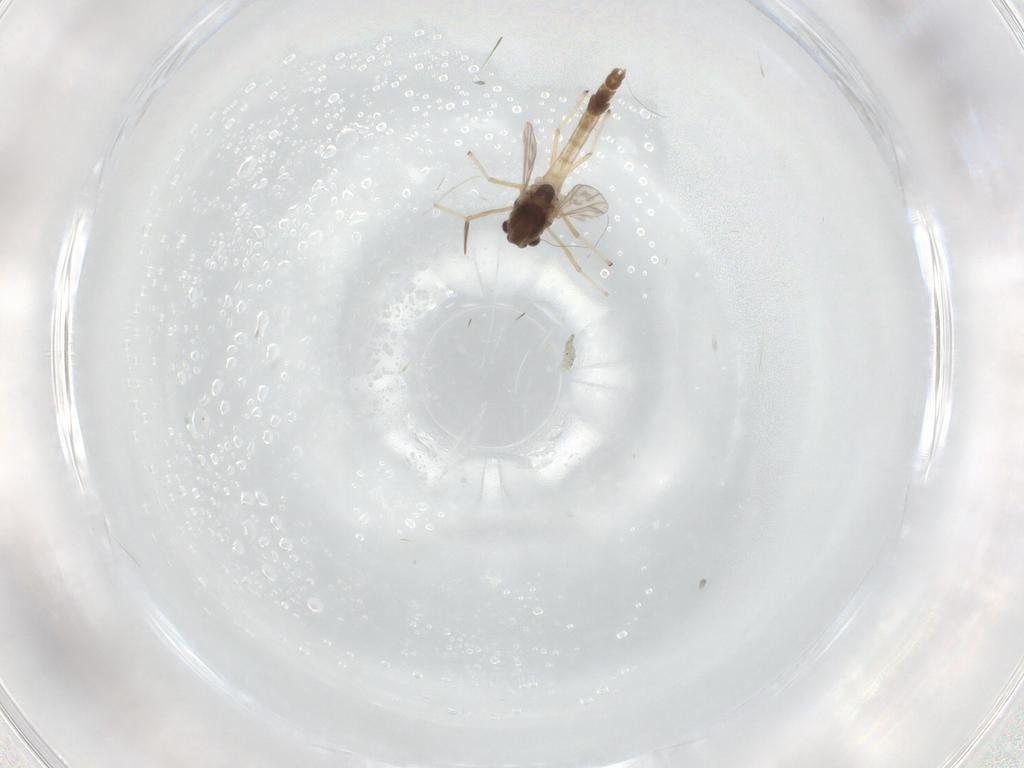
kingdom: Animalia
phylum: Arthropoda
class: Insecta
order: Diptera
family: Chironomidae
